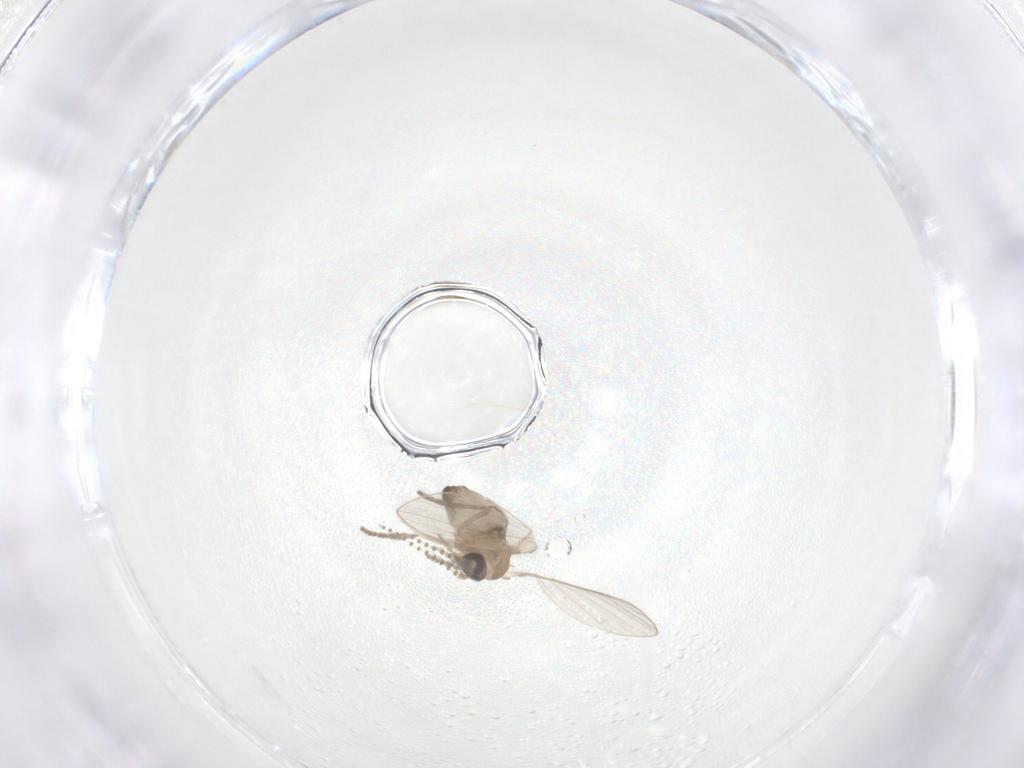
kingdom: Animalia
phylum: Arthropoda
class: Insecta
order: Diptera
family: Psychodidae
